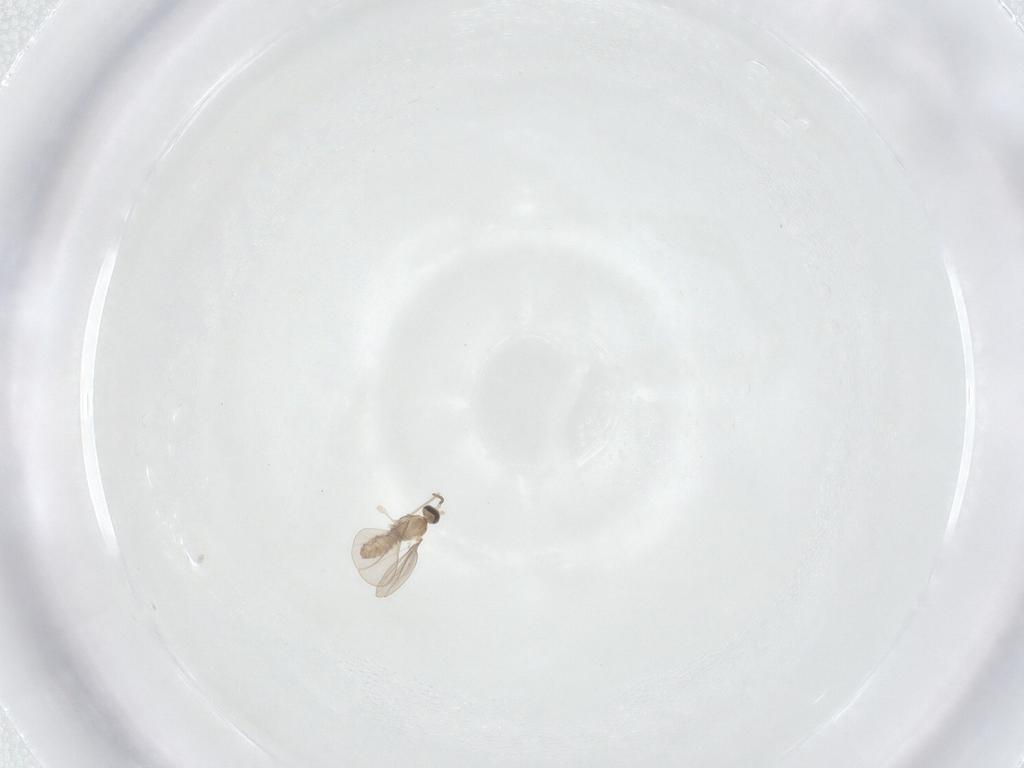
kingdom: Animalia
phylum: Arthropoda
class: Insecta
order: Diptera
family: Cecidomyiidae
